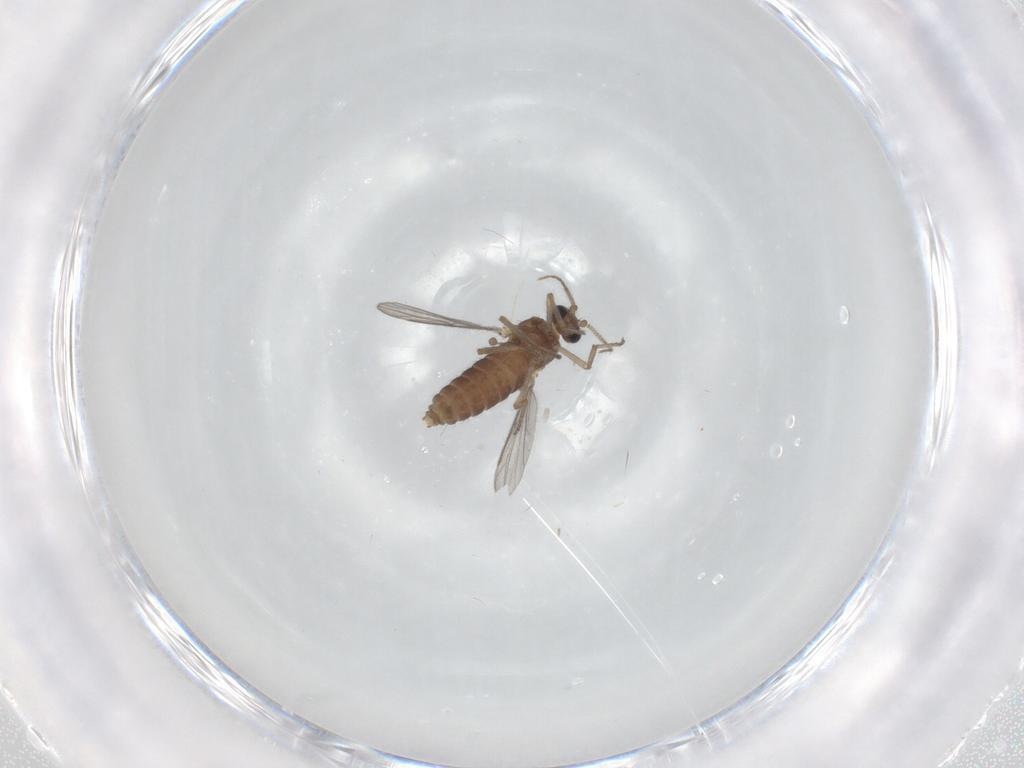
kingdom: Animalia
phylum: Arthropoda
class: Insecta
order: Diptera
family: Ceratopogonidae
